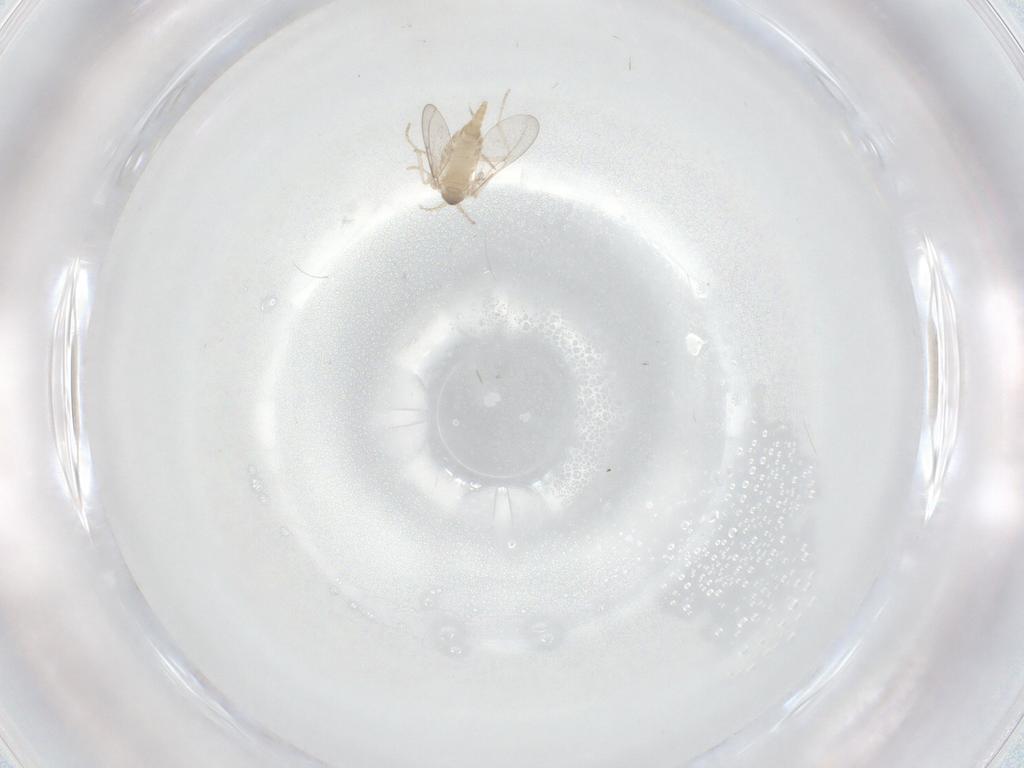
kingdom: Animalia
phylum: Arthropoda
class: Insecta
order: Diptera
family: Cecidomyiidae
